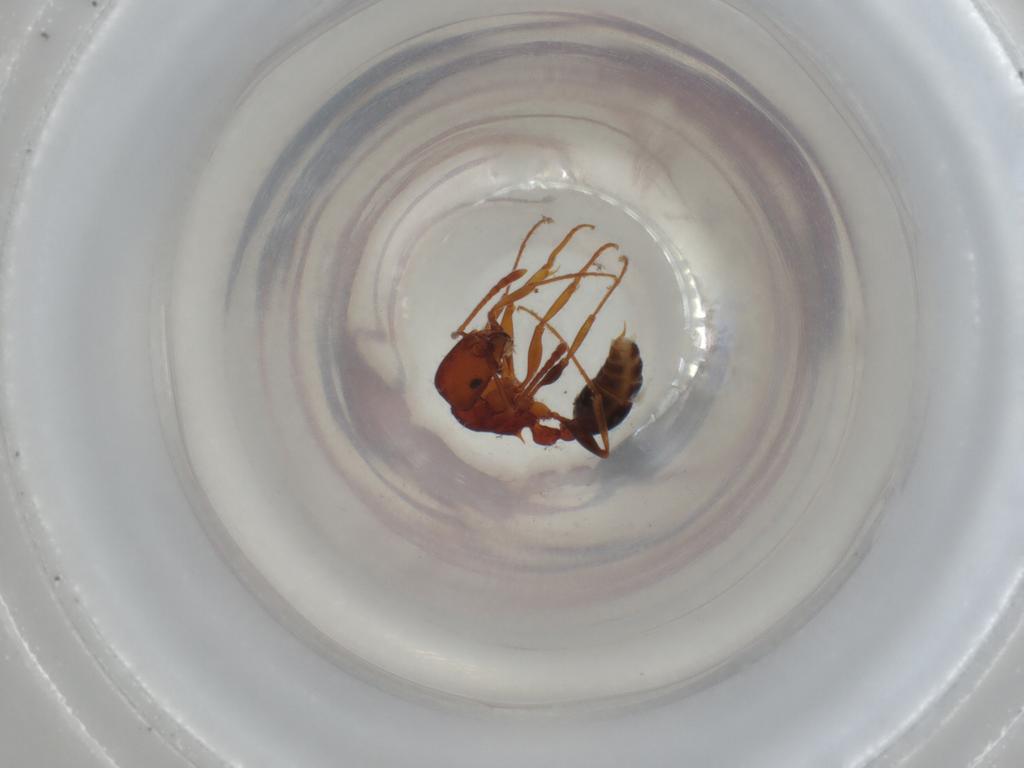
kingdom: Animalia
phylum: Arthropoda
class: Insecta
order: Hymenoptera
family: Formicidae
